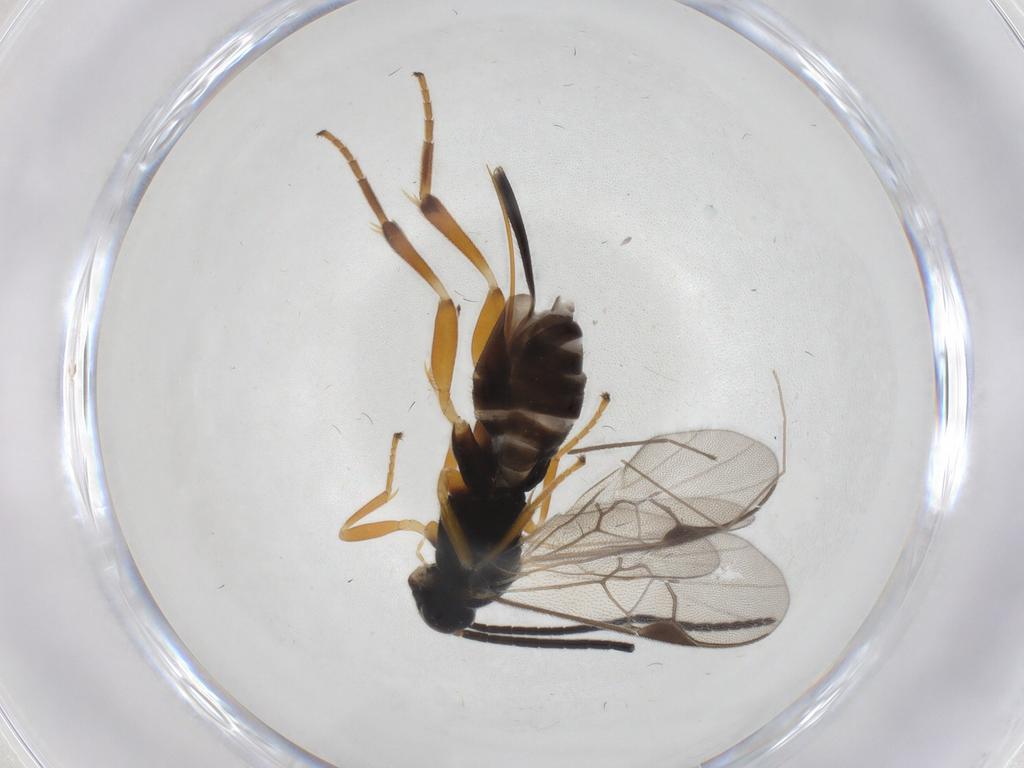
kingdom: Animalia
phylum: Arthropoda
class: Insecta
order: Hymenoptera
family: Braconidae
